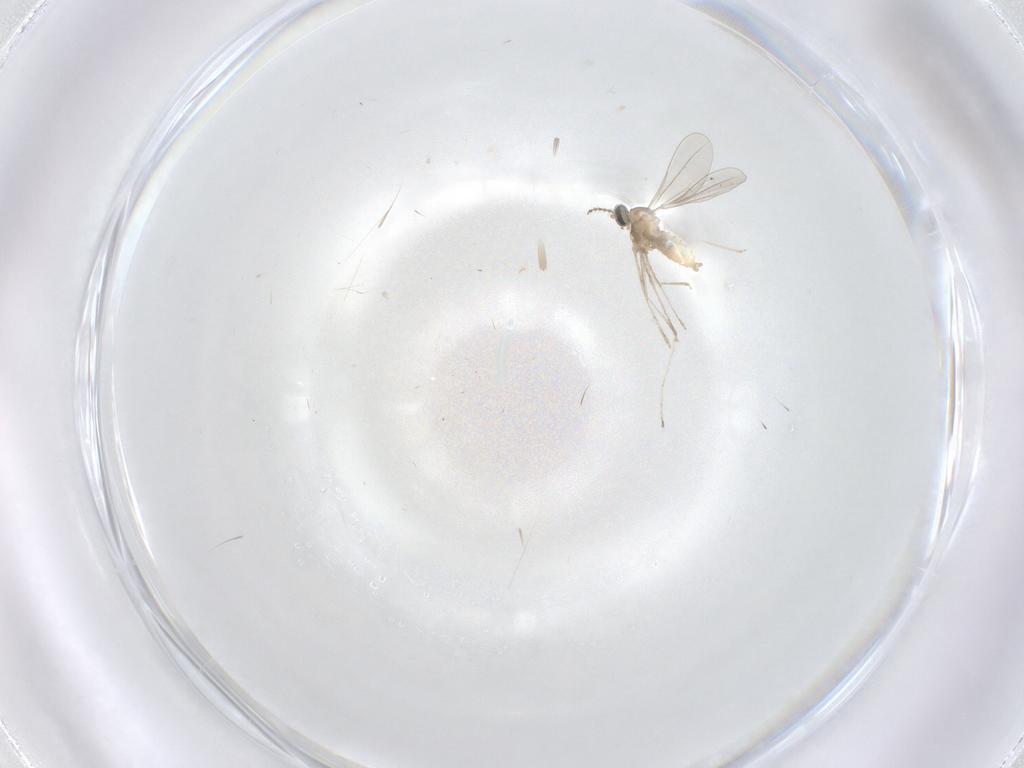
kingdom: Animalia
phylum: Arthropoda
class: Insecta
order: Diptera
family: Cecidomyiidae
